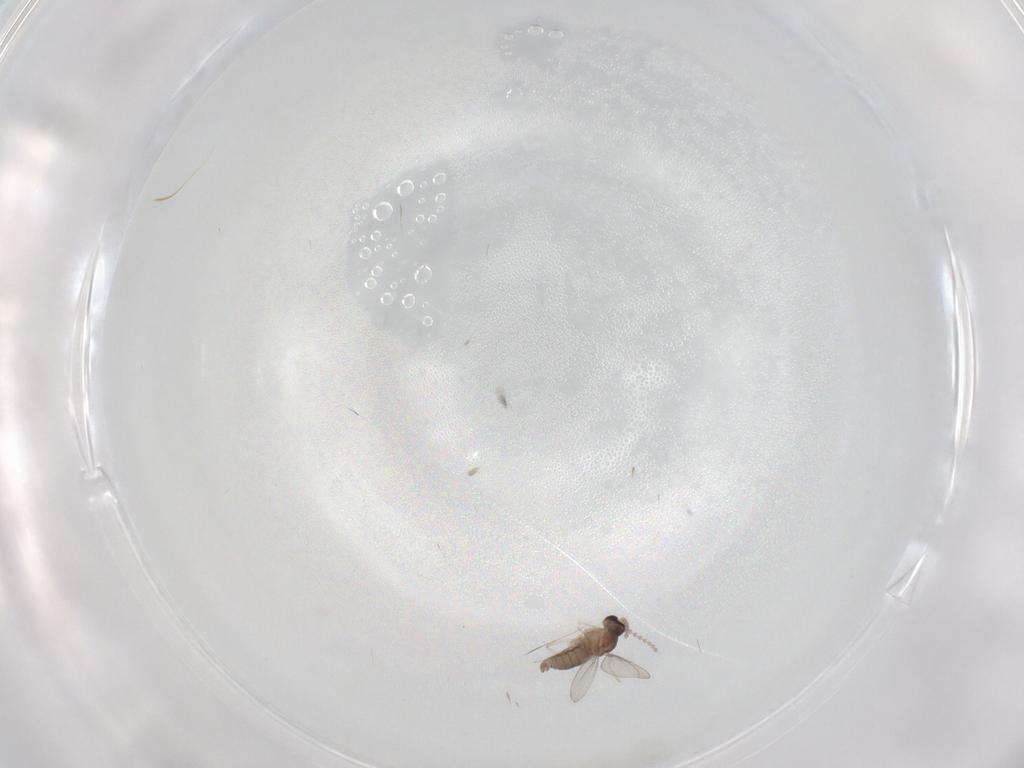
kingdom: Animalia
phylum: Arthropoda
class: Insecta
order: Diptera
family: Cecidomyiidae
